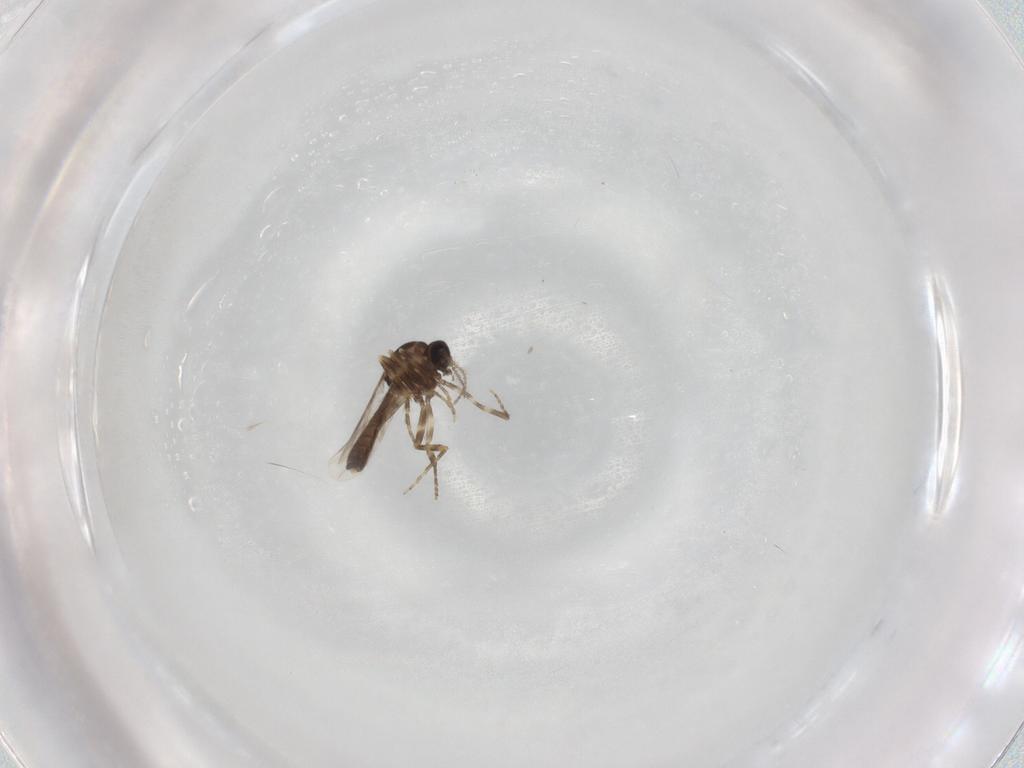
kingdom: Animalia
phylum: Arthropoda
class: Insecta
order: Diptera
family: Ceratopogonidae
